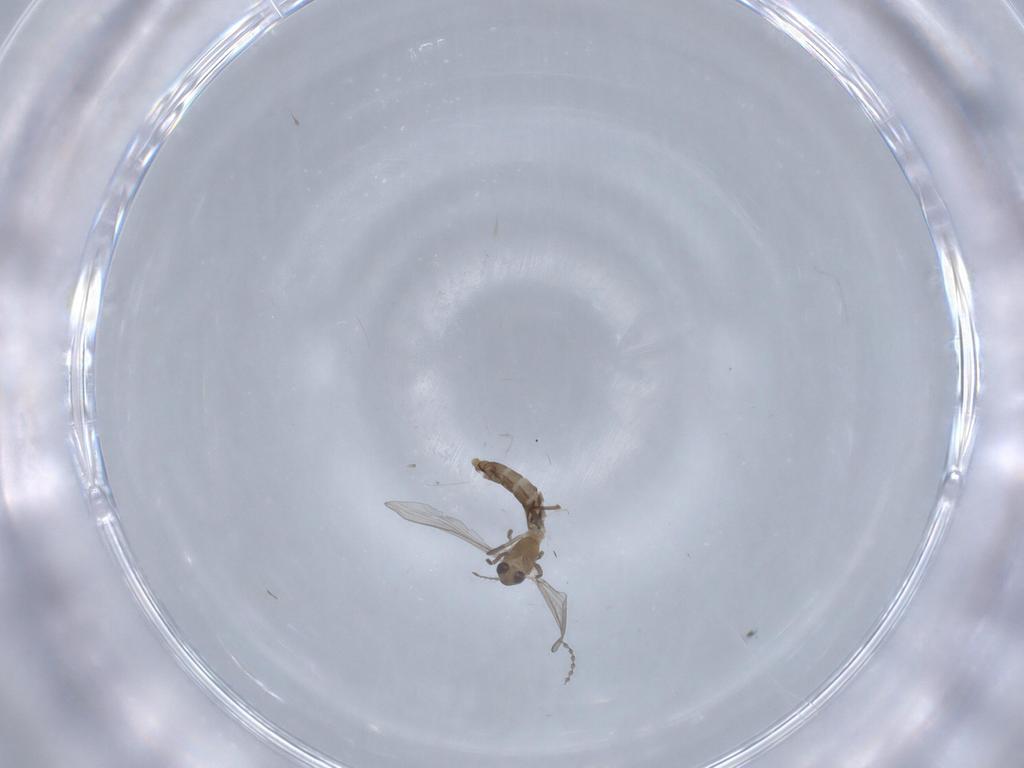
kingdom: Animalia
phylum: Arthropoda
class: Insecta
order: Diptera
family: Chironomidae
